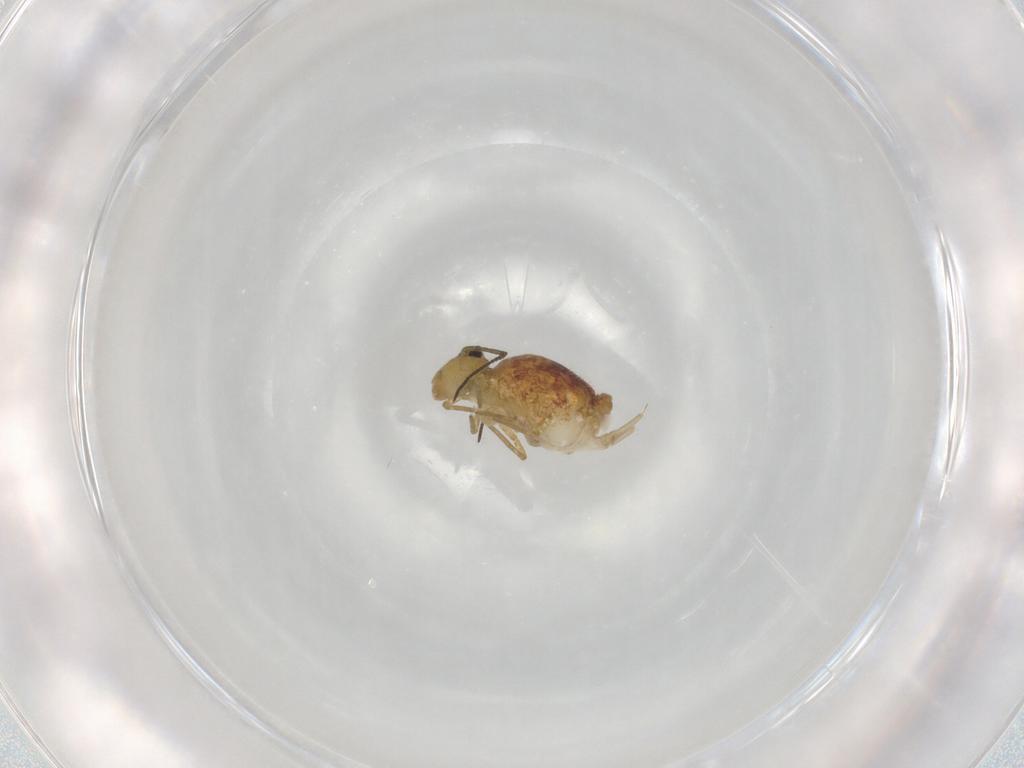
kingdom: Animalia
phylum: Arthropoda
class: Collembola
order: Symphypleona
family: Sminthuridae
